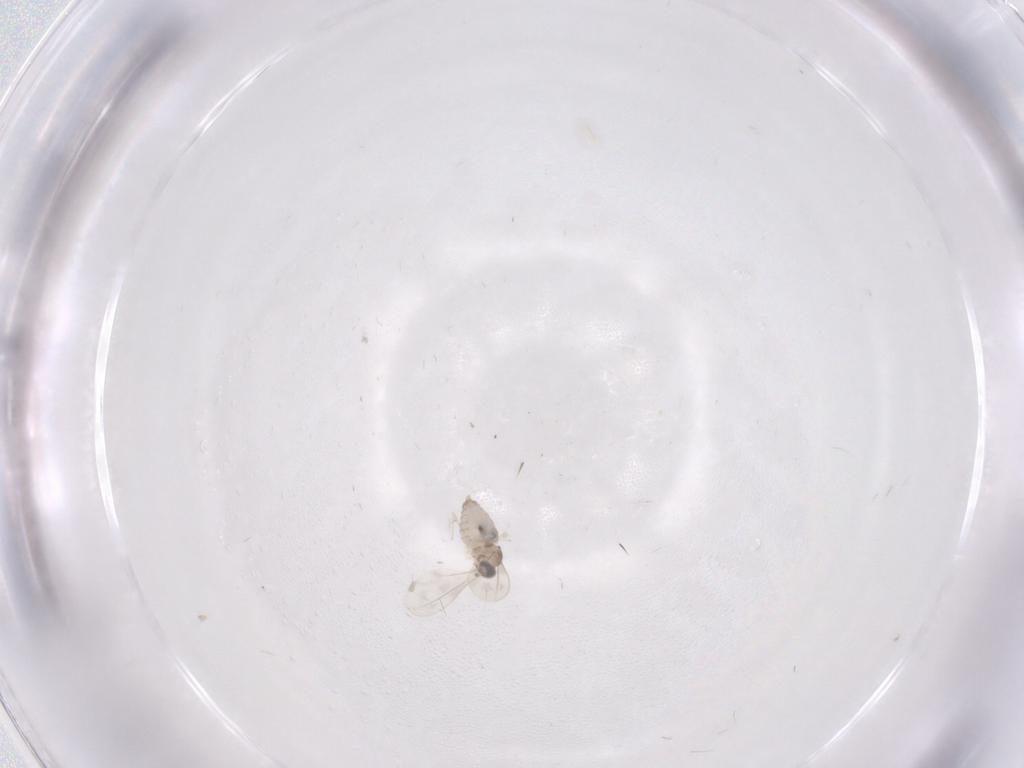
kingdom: Animalia
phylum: Arthropoda
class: Insecta
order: Diptera
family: Cecidomyiidae
